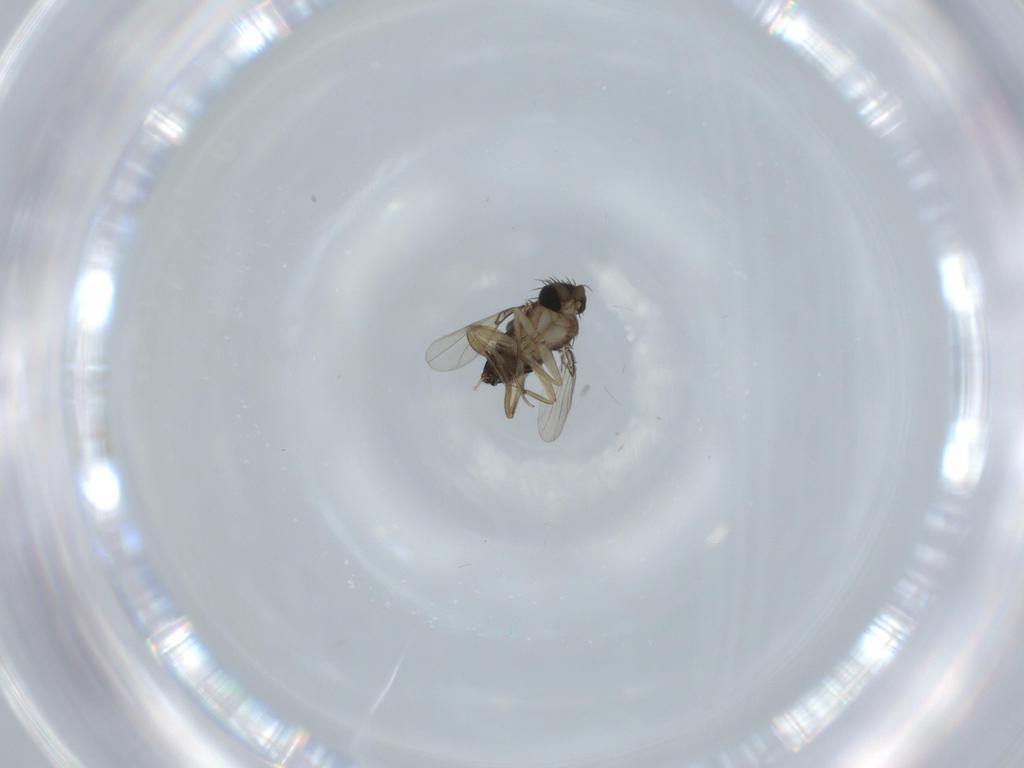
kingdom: Animalia
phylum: Arthropoda
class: Insecta
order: Diptera
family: Phoridae
